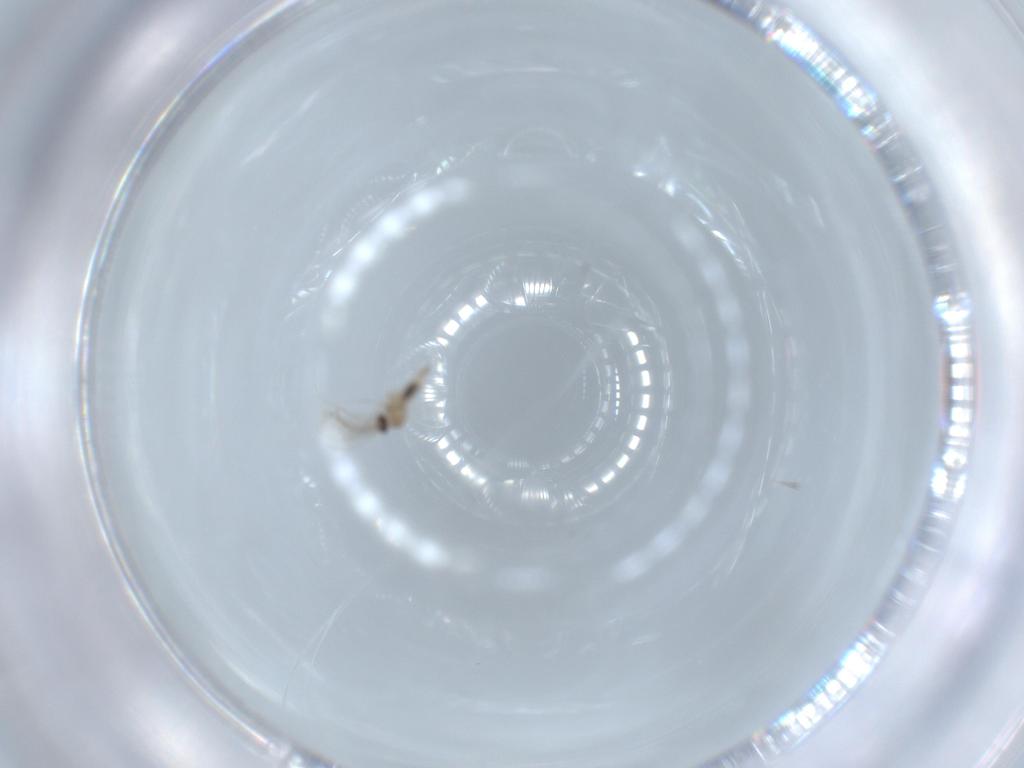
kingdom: Animalia
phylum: Arthropoda
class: Insecta
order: Diptera
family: Cecidomyiidae
